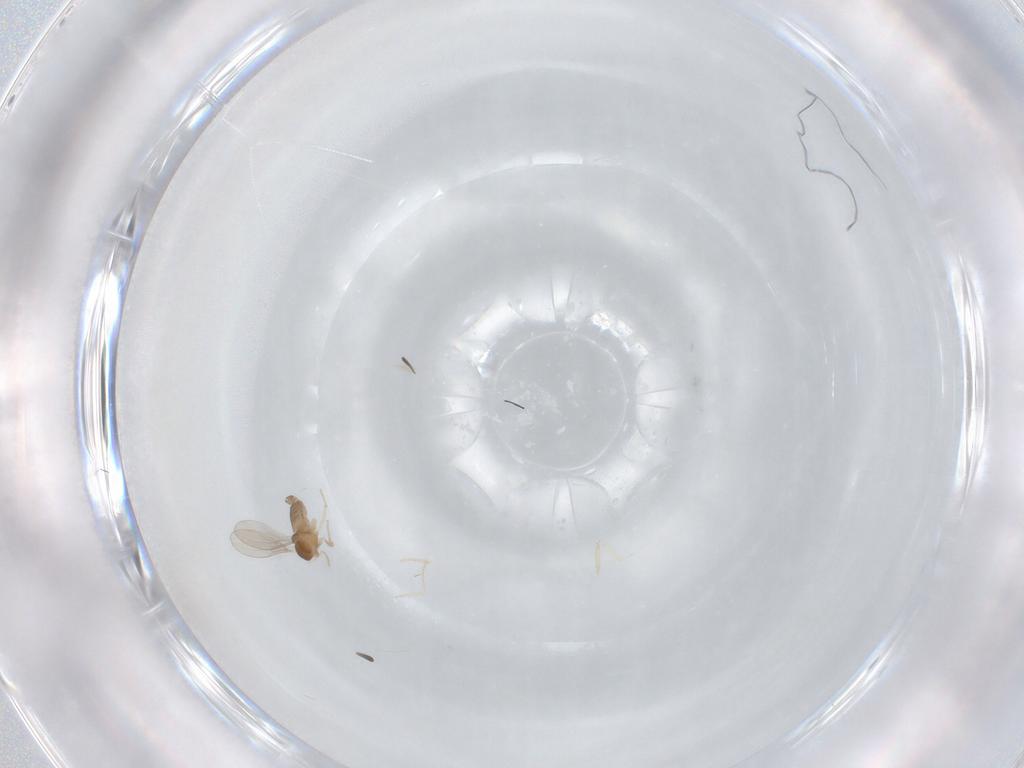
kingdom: Animalia
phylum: Arthropoda
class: Insecta
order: Diptera
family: Cecidomyiidae
